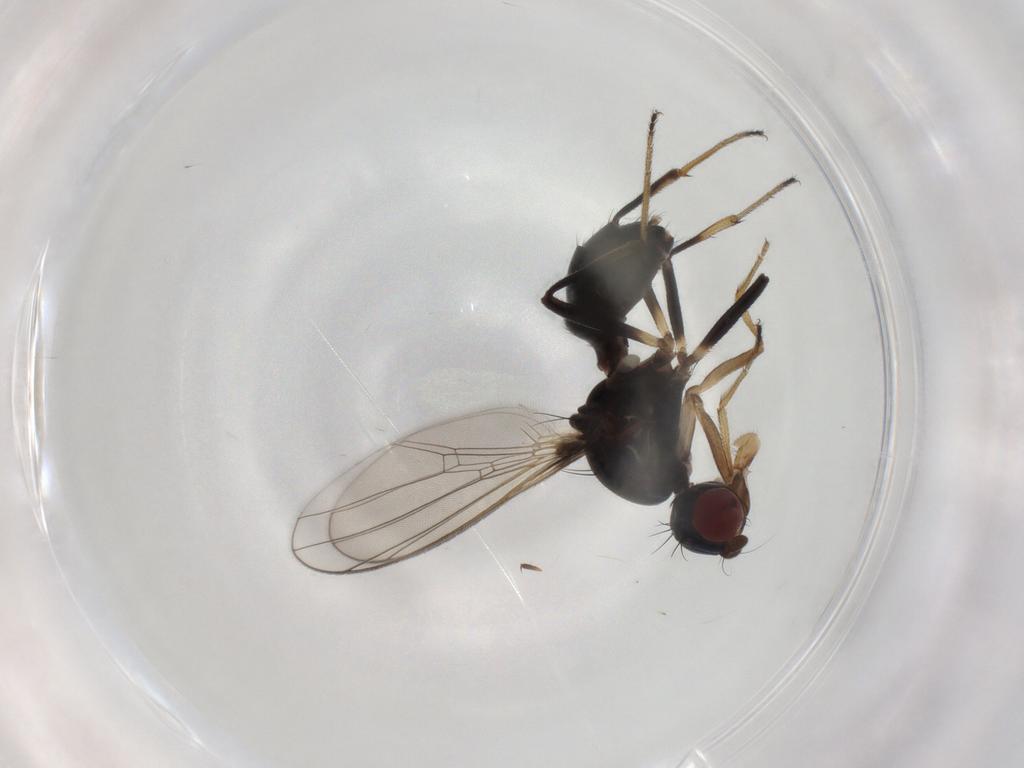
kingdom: Animalia
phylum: Arthropoda
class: Insecta
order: Diptera
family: Sepsidae
